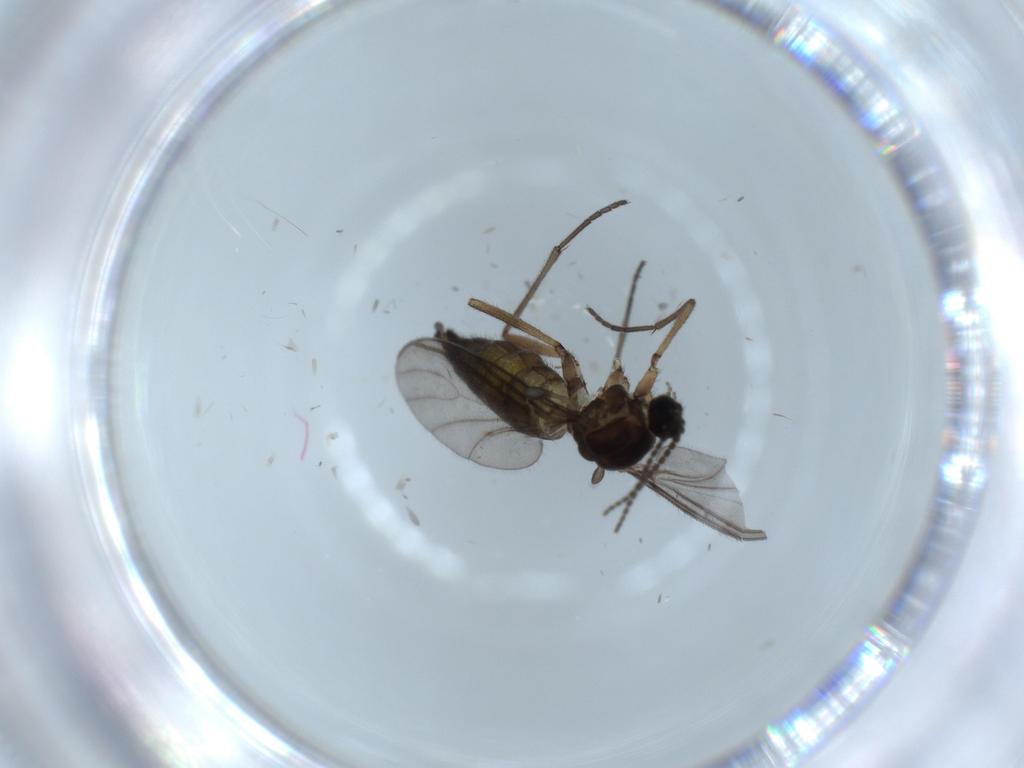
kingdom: Animalia
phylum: Arthropoda
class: Insecta
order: Diptera
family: Sciaridae
